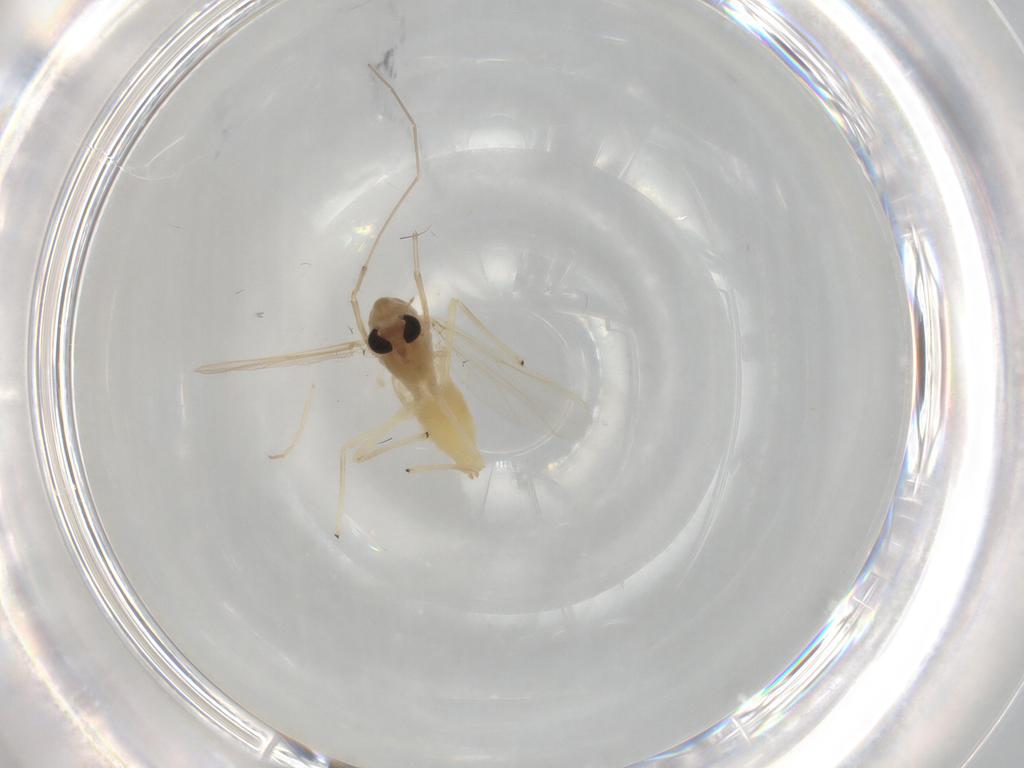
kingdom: Animalia
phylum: Arthropoda
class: Insecta
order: Diptera
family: Chironomidae
